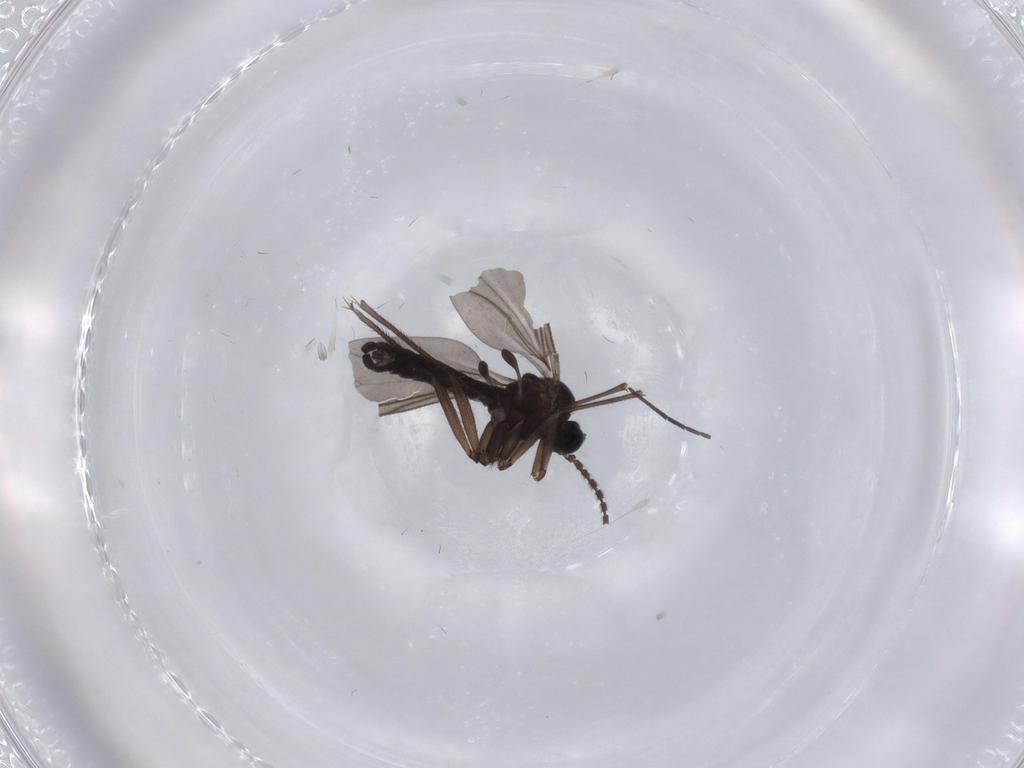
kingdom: Animalia
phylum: Arthropoda
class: Insecta
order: Diptera
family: Sciaridae
